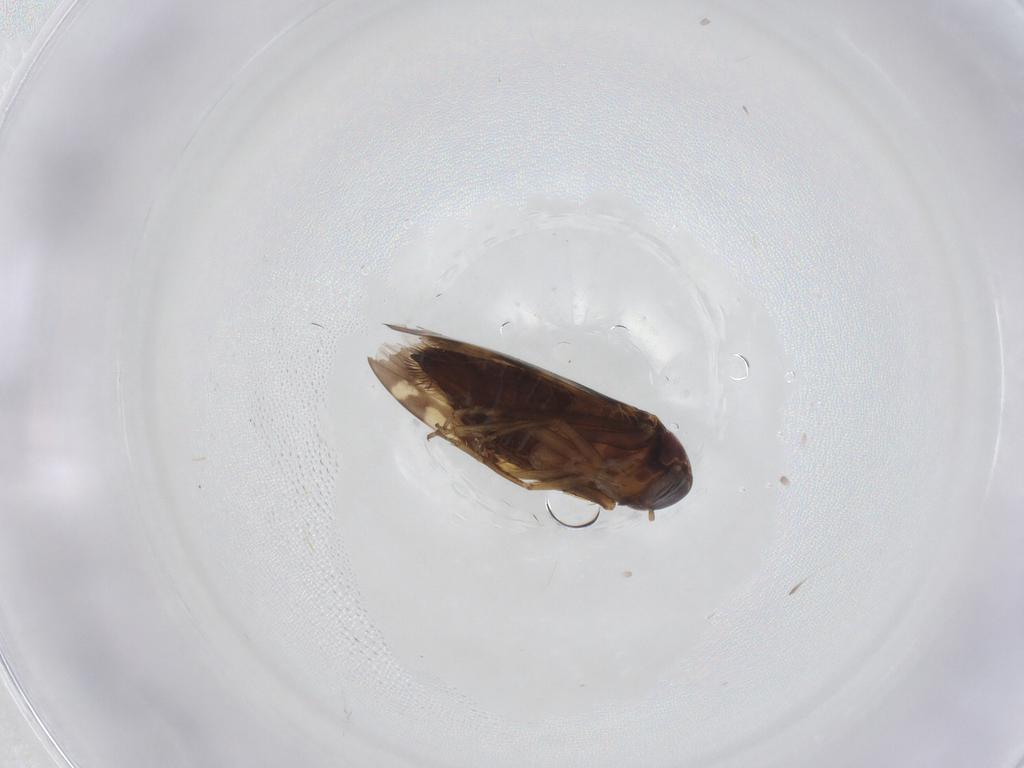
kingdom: Animalia
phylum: Arthropoda
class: Insecta
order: Hemiptera
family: Cicadellidae
